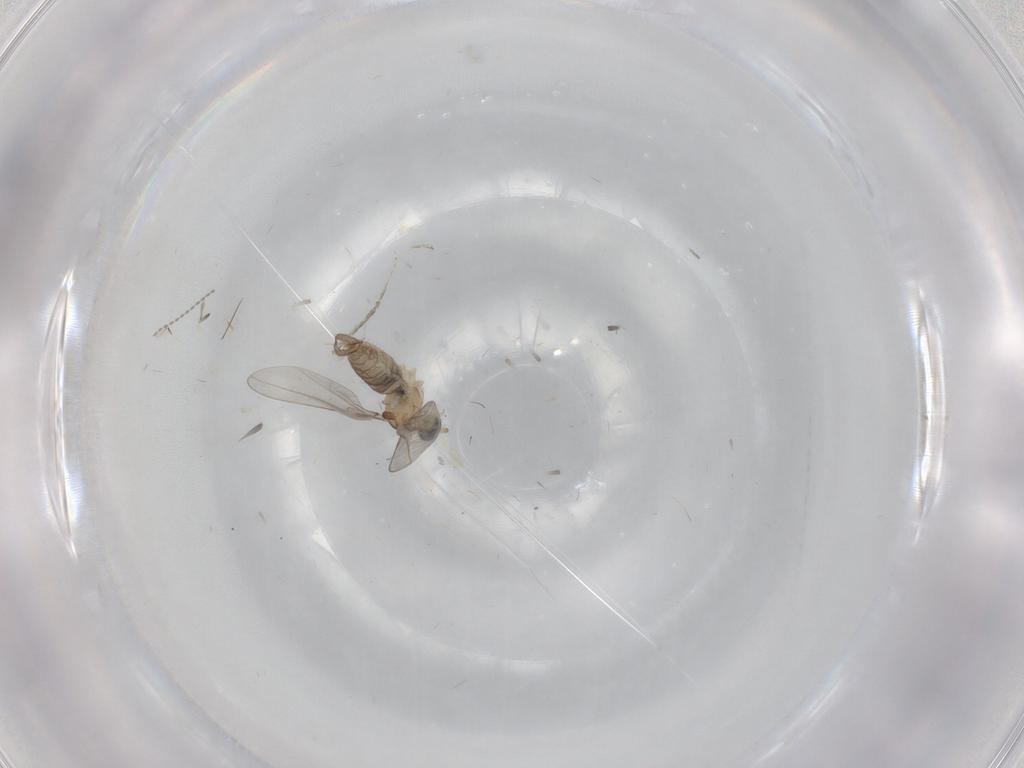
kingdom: Animalia
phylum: Arthropoda
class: Insecta
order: Diptera
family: Cecidomyiidae
